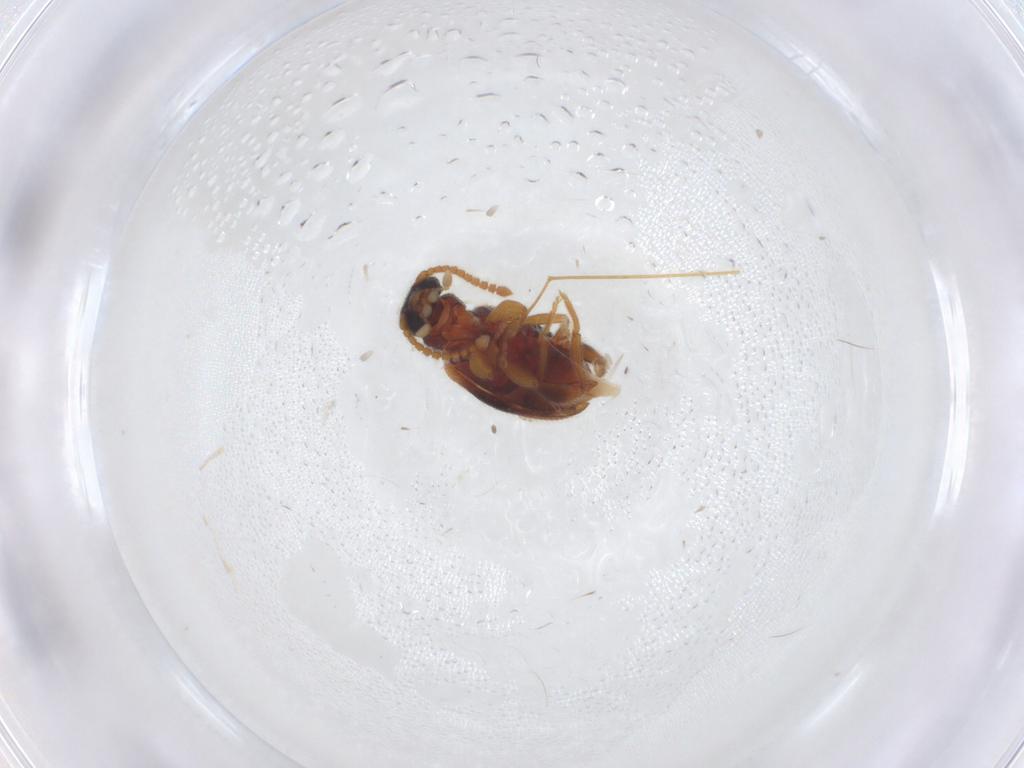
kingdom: Animalia
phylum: Arthropoda
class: Insecta
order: Coleoptera
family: Aderidae
